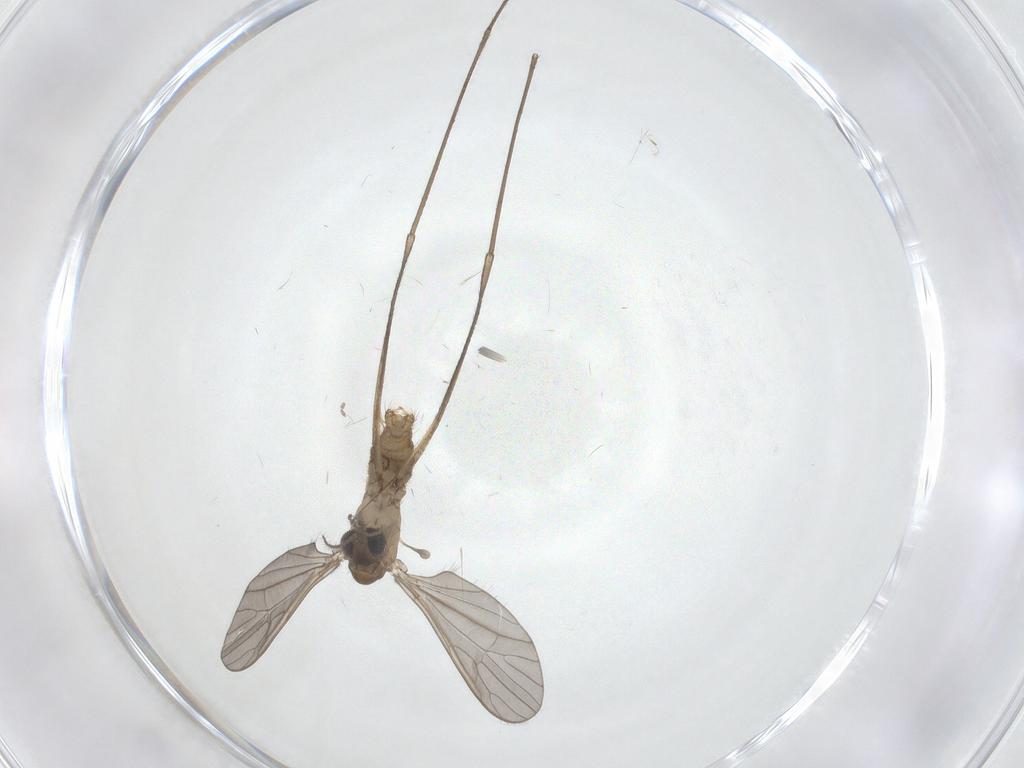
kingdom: Animalia
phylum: Arthropoda
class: Insecta
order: Diptera
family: Limoniidae
